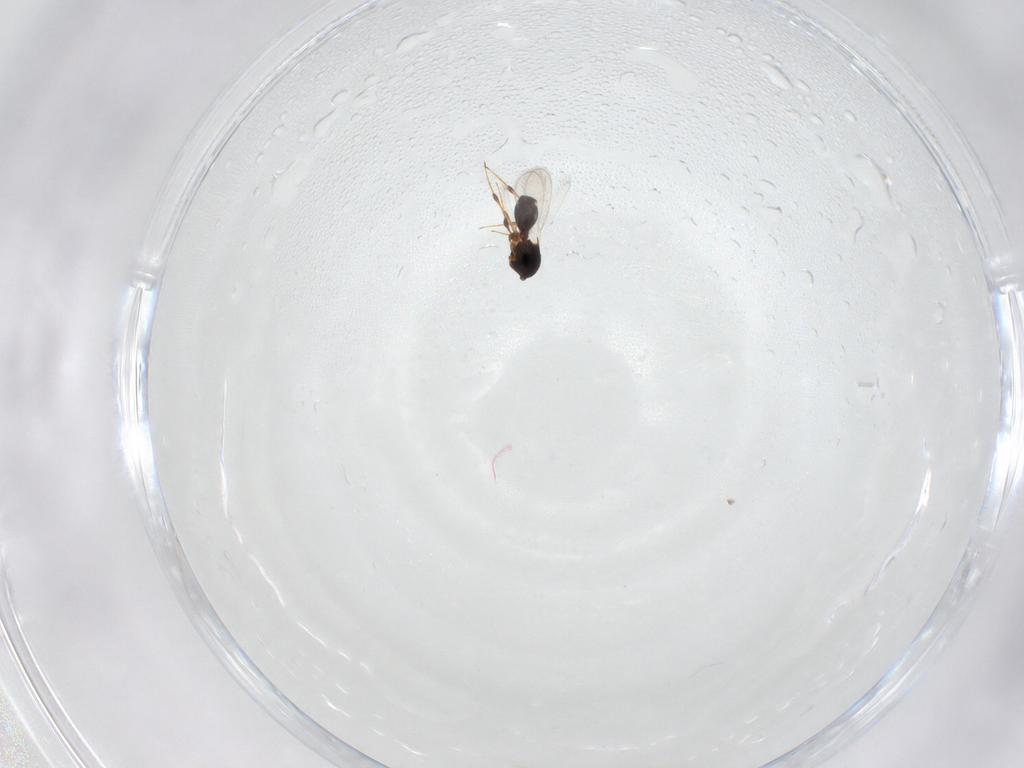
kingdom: Animalia
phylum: Arthropoda
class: Insecta
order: Hymenoptera
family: Platygastridae
